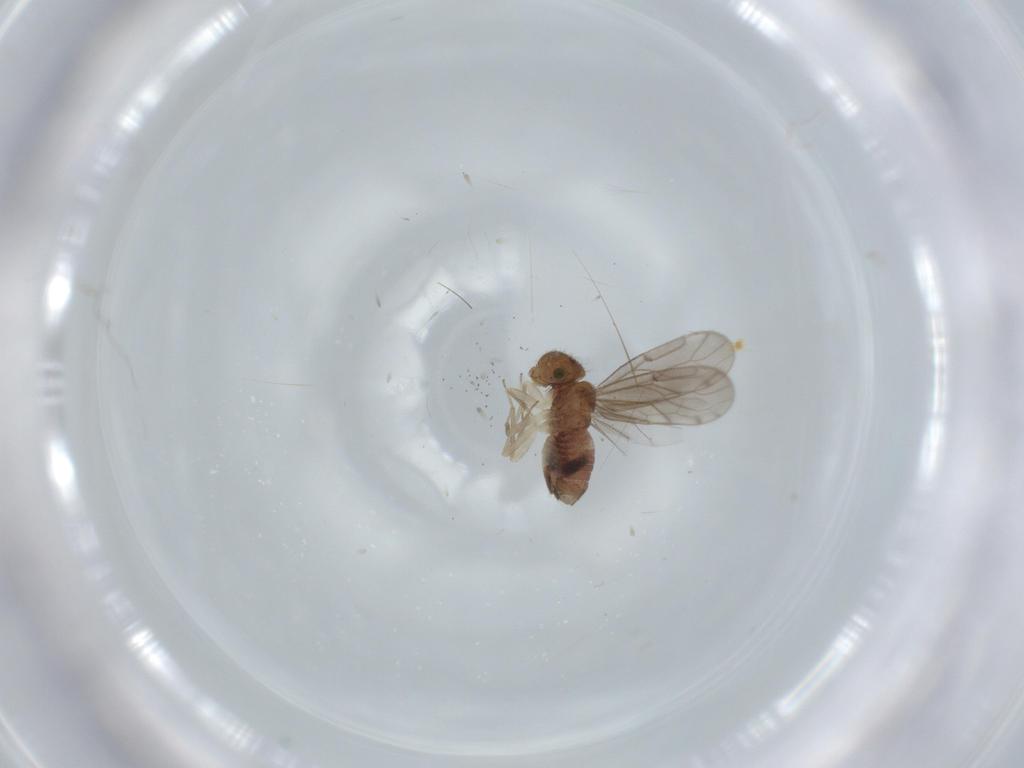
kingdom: Animalia
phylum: Arthropoda
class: Insecta
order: Psocodea
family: Ectopsocidae
